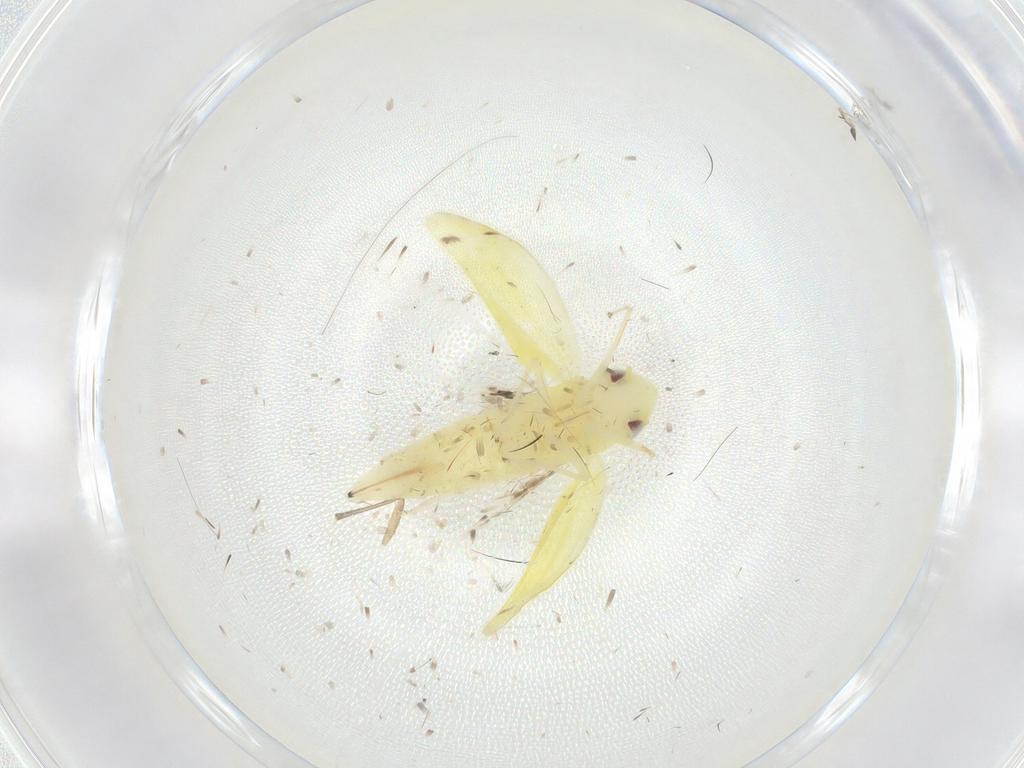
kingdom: Animalia
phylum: Arthropoda
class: Insecta
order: Hemiptera
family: Cicadellidae
